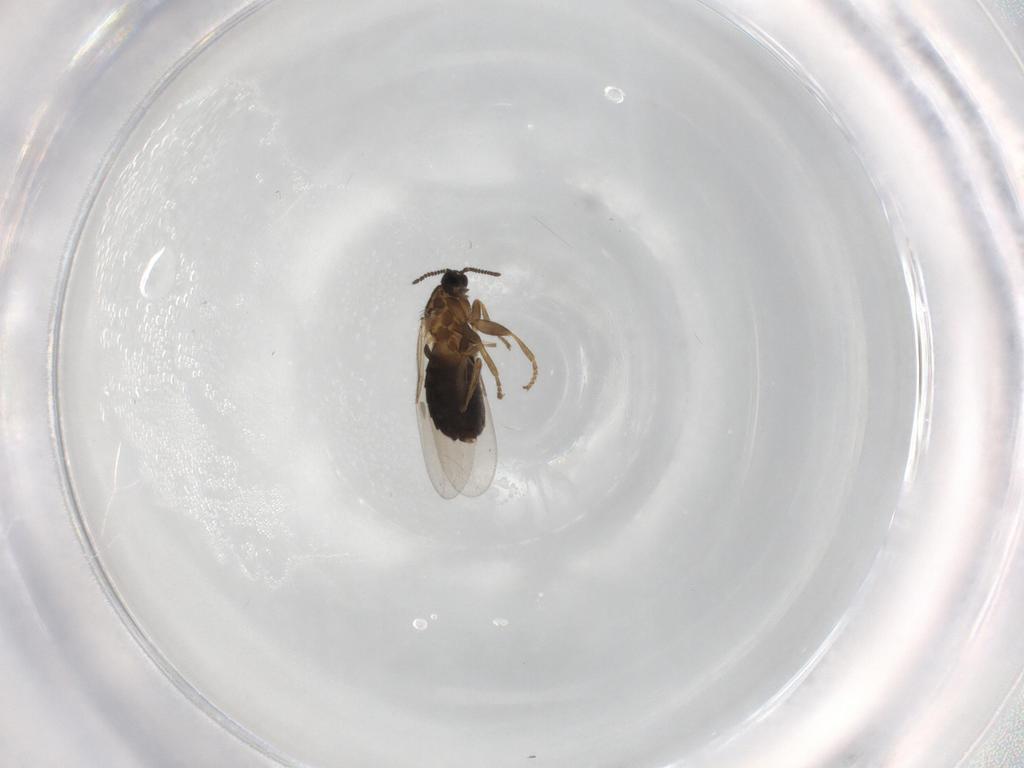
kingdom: Animalia
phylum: Arthropoda
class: Insecta
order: Diptera
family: Scatopsidae
